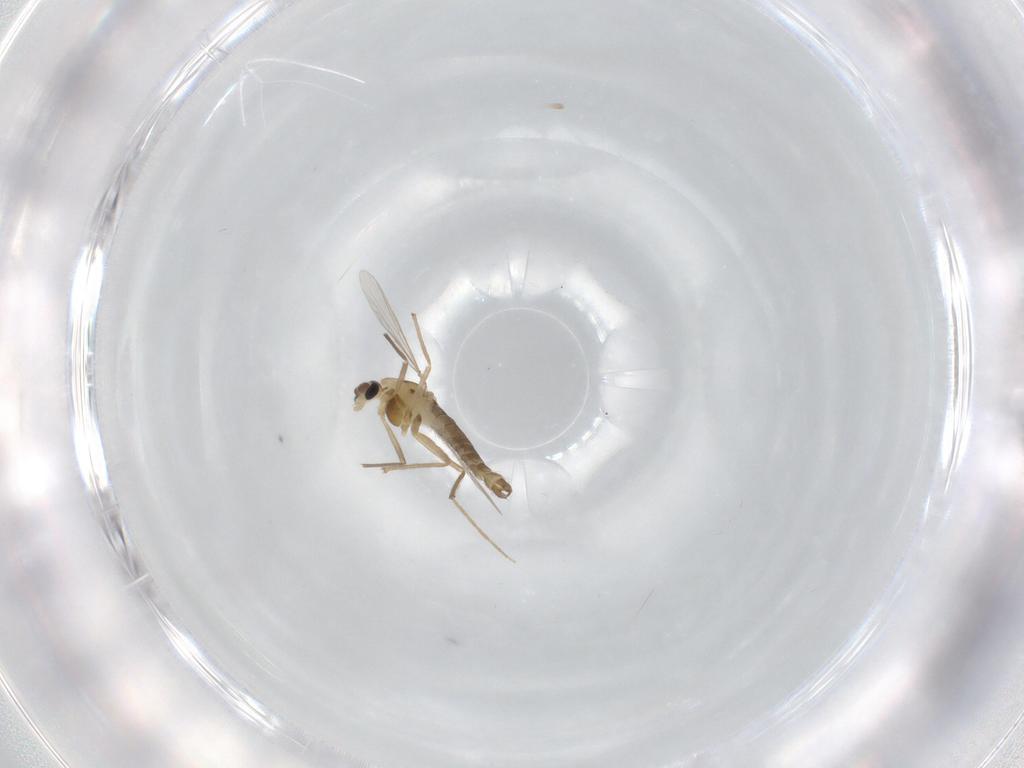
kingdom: Animalia
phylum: Arthropoda
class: Insecta
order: Diptera
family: Chironomidae
